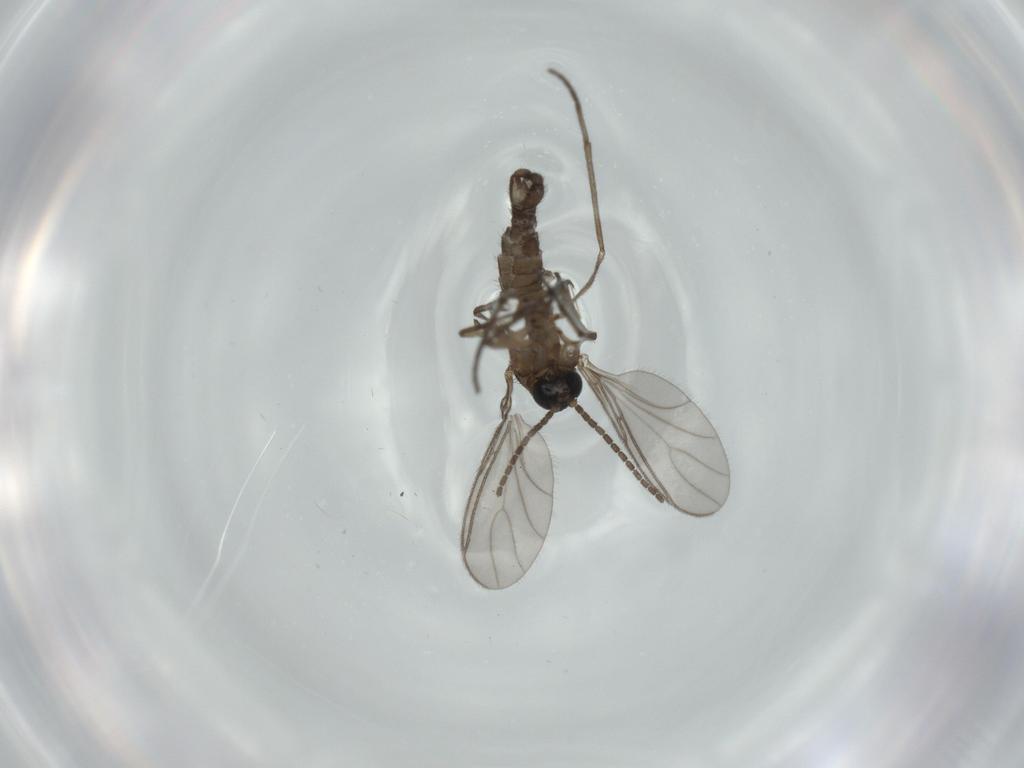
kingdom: Animalia
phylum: Arthropoda
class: Insecta
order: Diptera
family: Sciaridae
